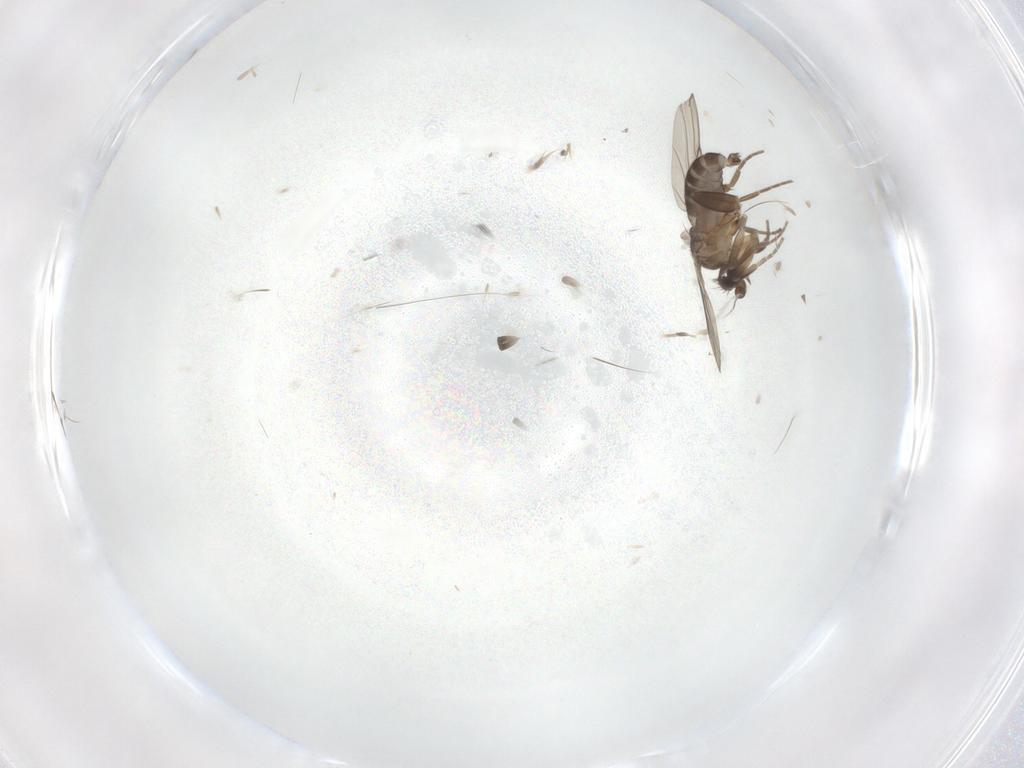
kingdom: Animalia
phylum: Arthropoda
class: Insecta
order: Diptera
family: Phoridae
